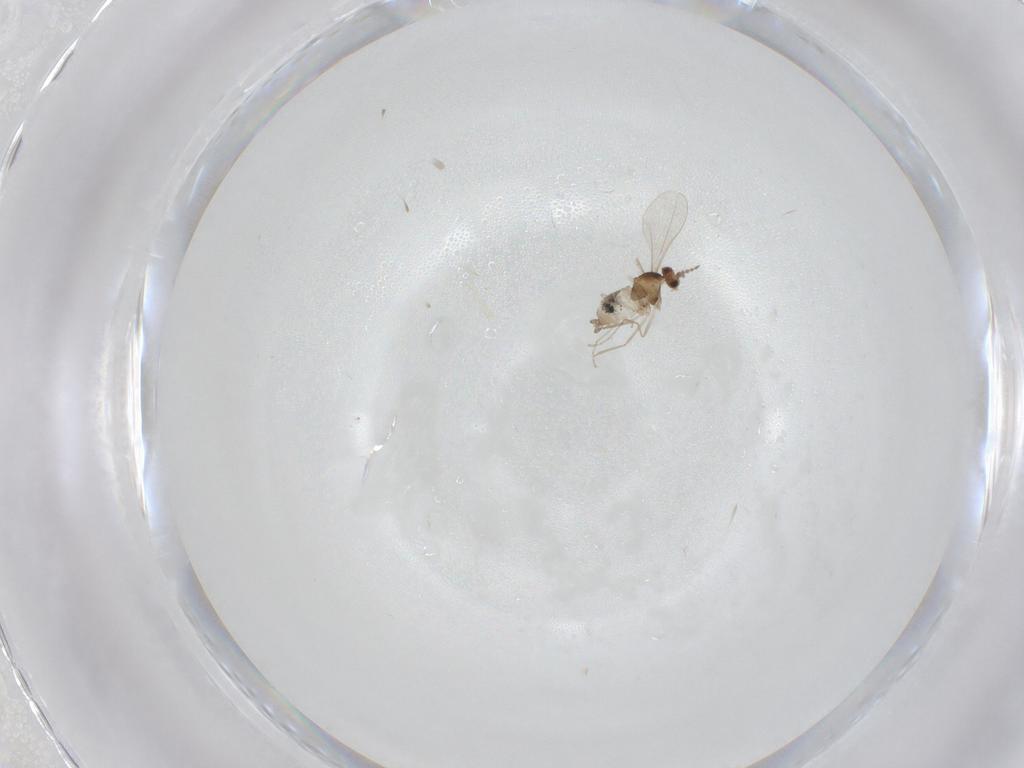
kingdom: Animalia
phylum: Arthropoda
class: Insecta
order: Diptera
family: Cecidomyiidae
